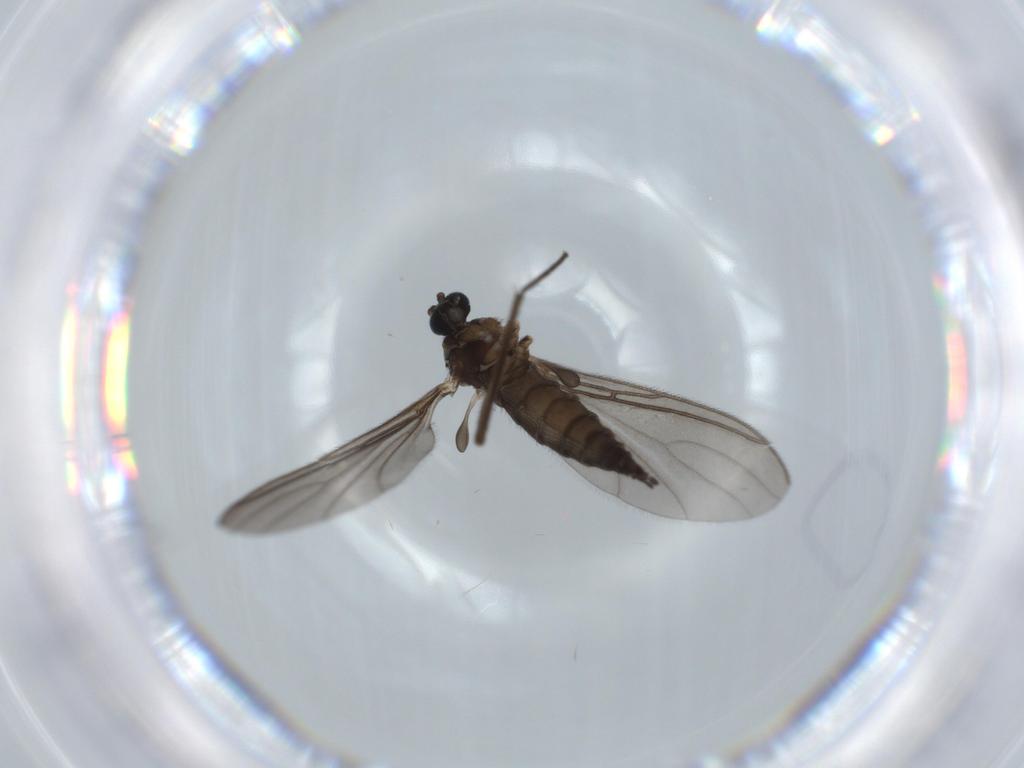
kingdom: Animalia
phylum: Arthropoda
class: Insecta
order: Diptera
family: Sciaridae
